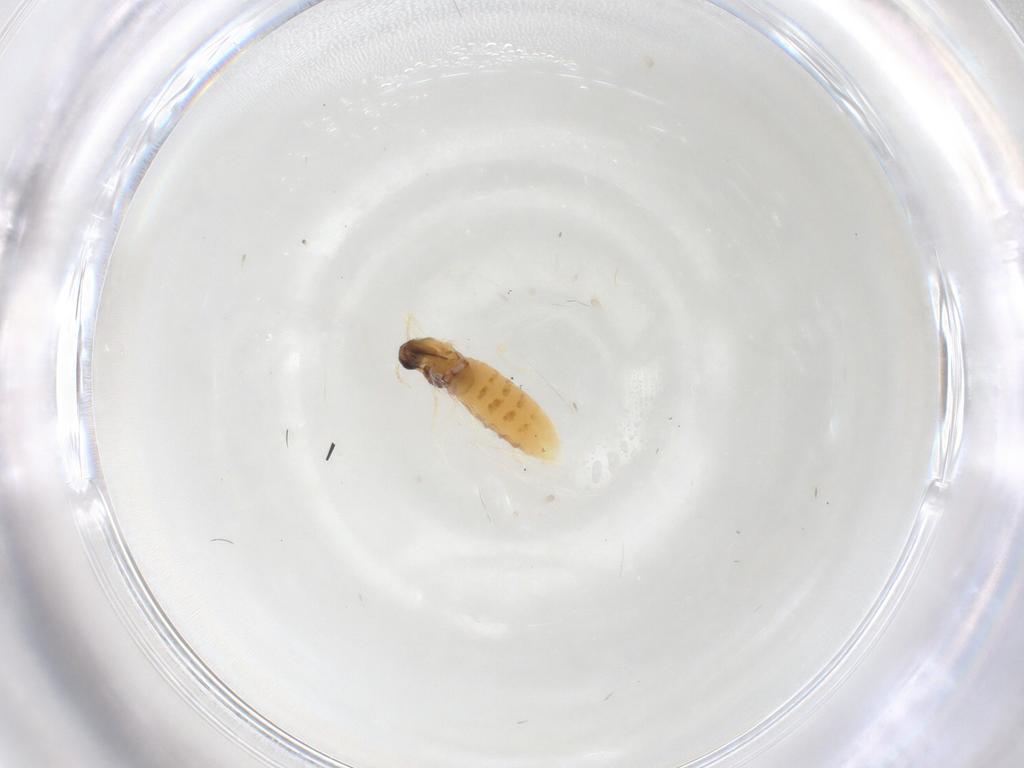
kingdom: Animalia
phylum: Arthropoda
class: Insecta
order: Diptera
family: Cecidomyiidae
